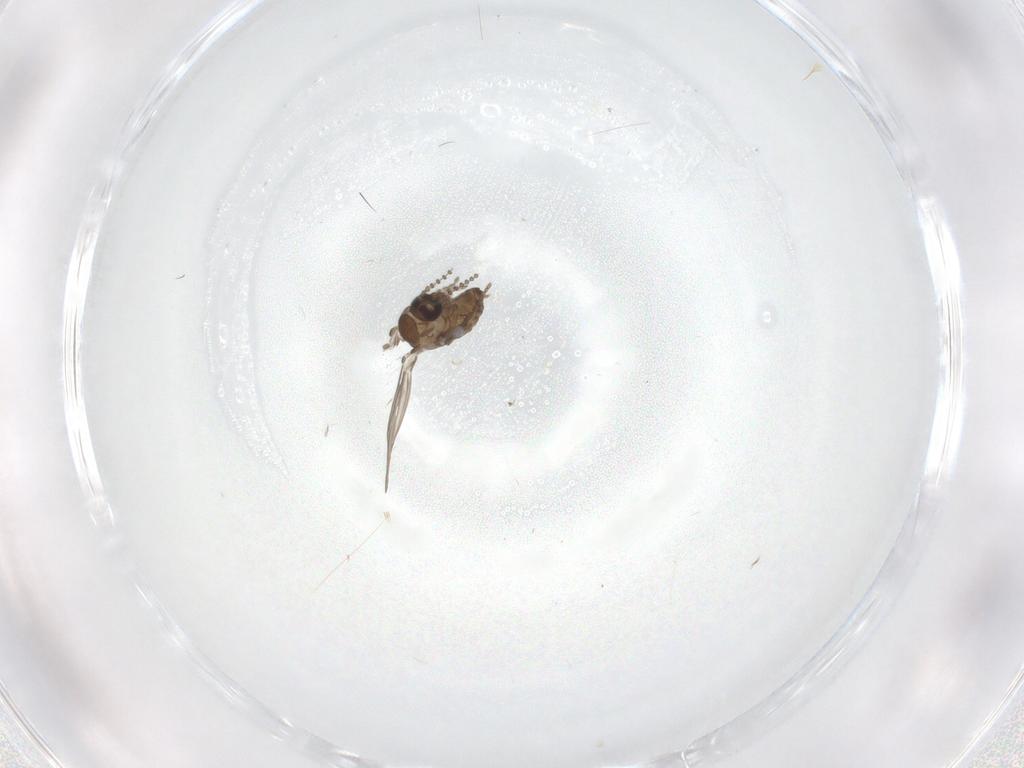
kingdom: Animalia
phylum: Arthropoda
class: Insecta
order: Diptera
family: Psychodidae
